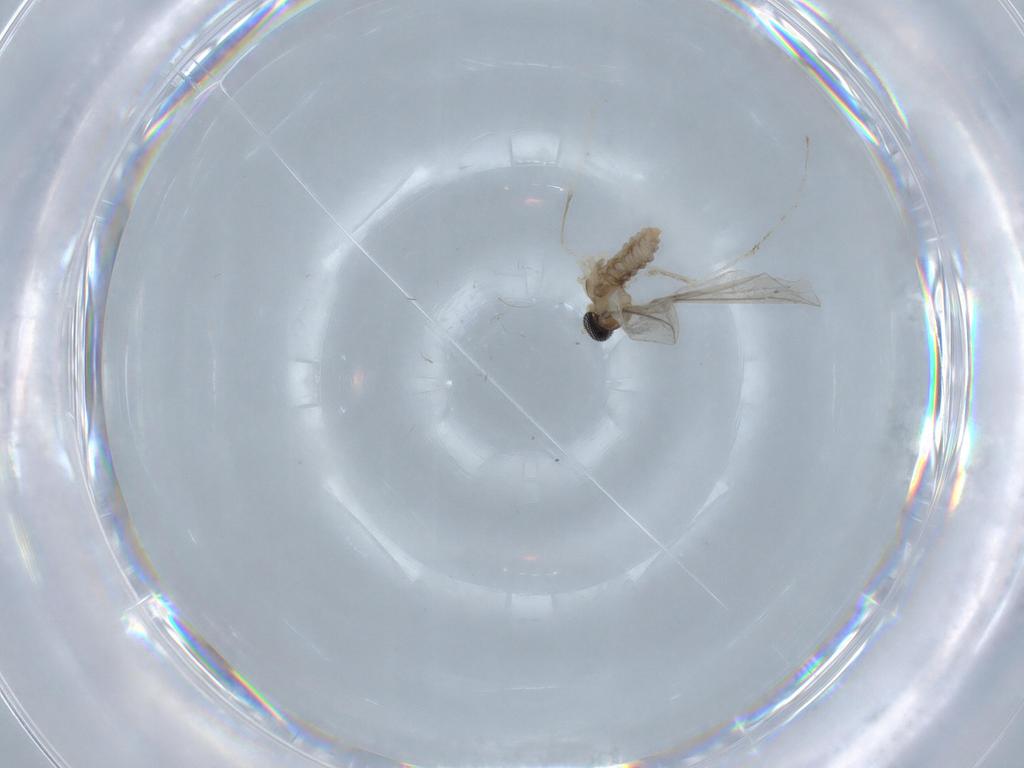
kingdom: Animalia
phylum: Arthropoda
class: Insecta
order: Diptera
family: Cecidomyiidae
